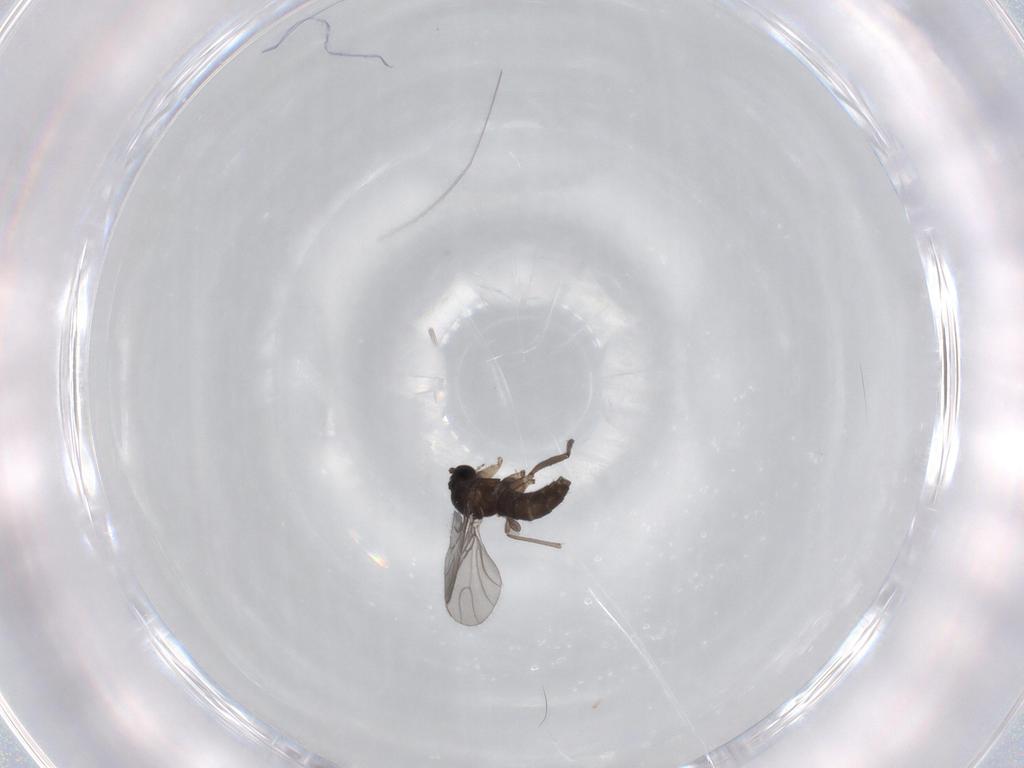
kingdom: Animalia
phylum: Arthropoda
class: Insecta
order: Diptera
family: Sciaridae
